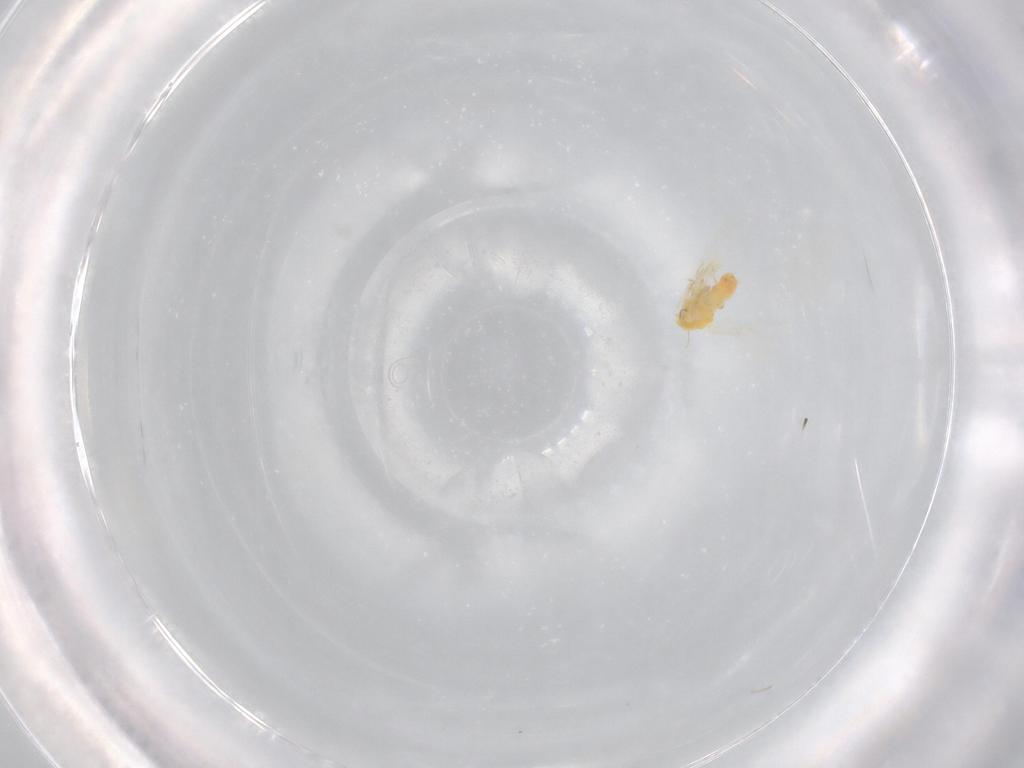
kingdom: Animalia
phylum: Arthropoda
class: Insecta
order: Hemiptera
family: Aleyrodidae
